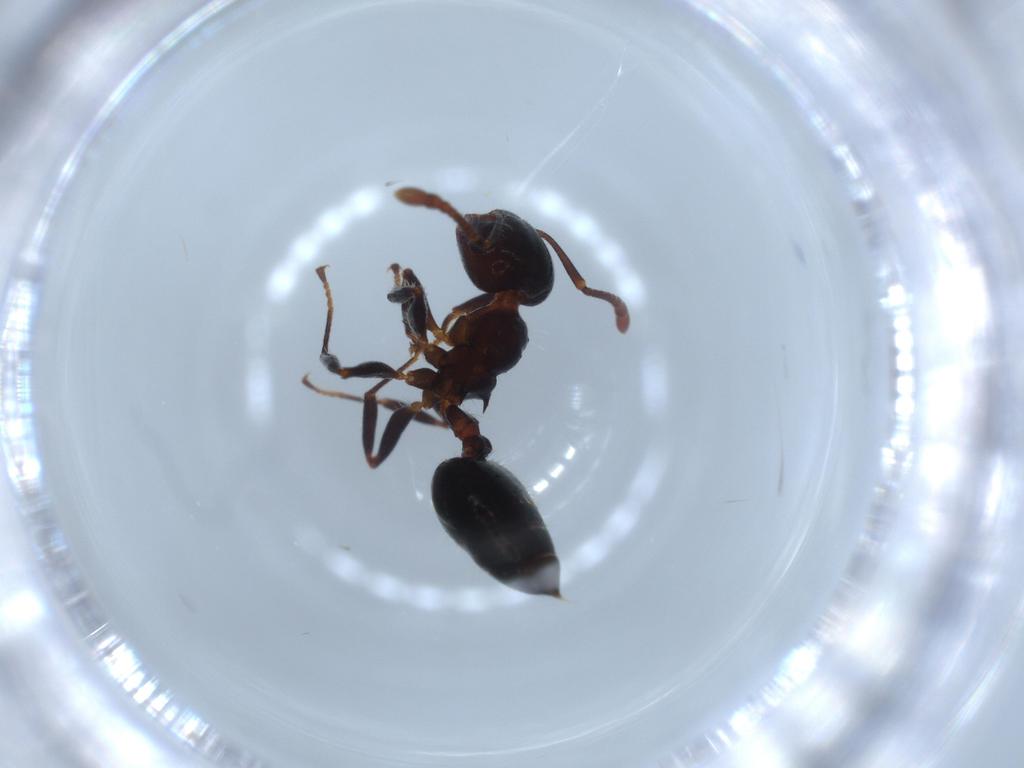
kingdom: Animalia
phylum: Arthropoda
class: Insecta
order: Hymenoptera
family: Formicidae
